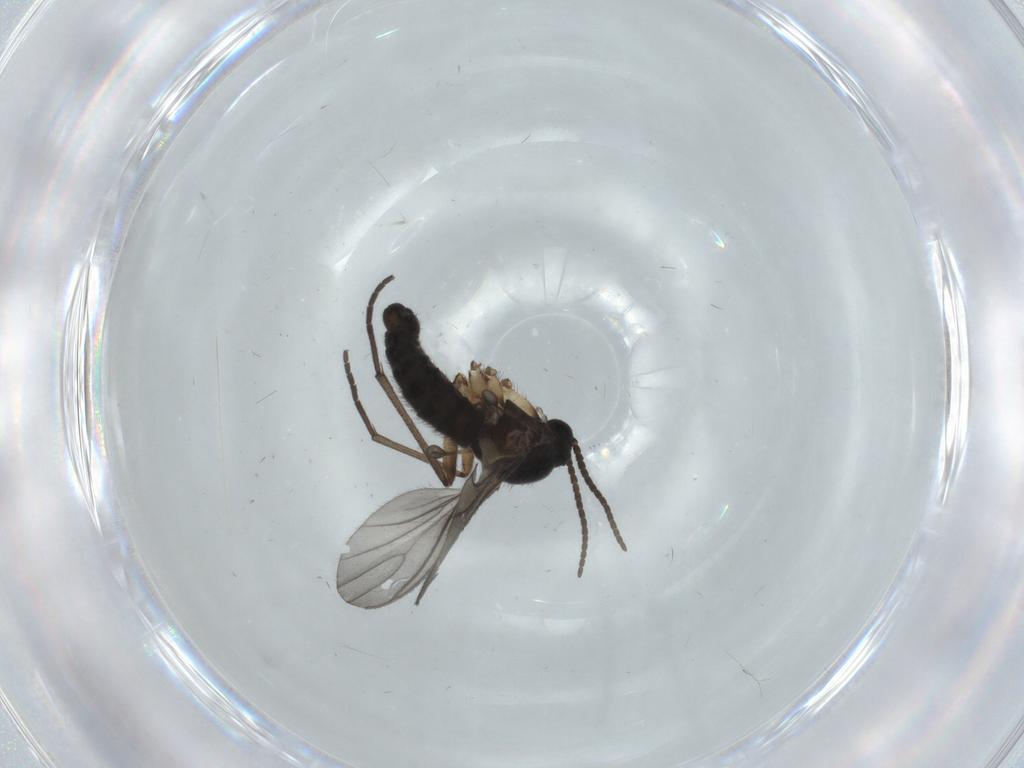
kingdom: Animalia
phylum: Arthropoda
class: Insecta
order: Diptera
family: Sciaridae
